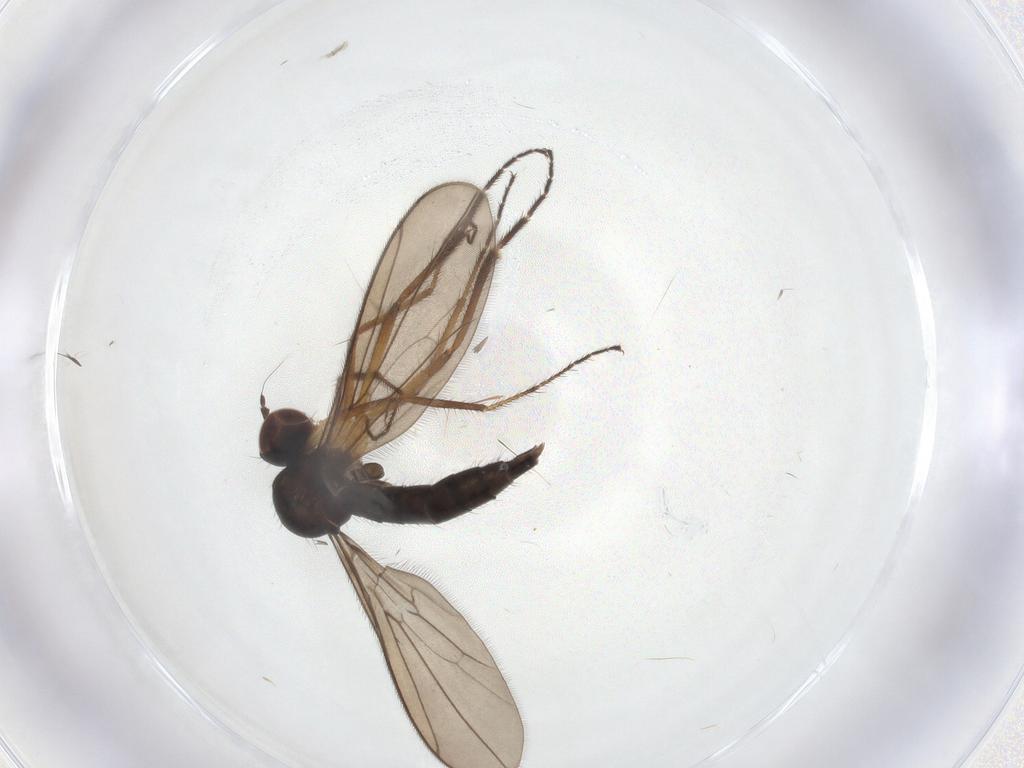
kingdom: Animalia
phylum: Arthropoda
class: Insecta
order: Diptera
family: Hybotidae
